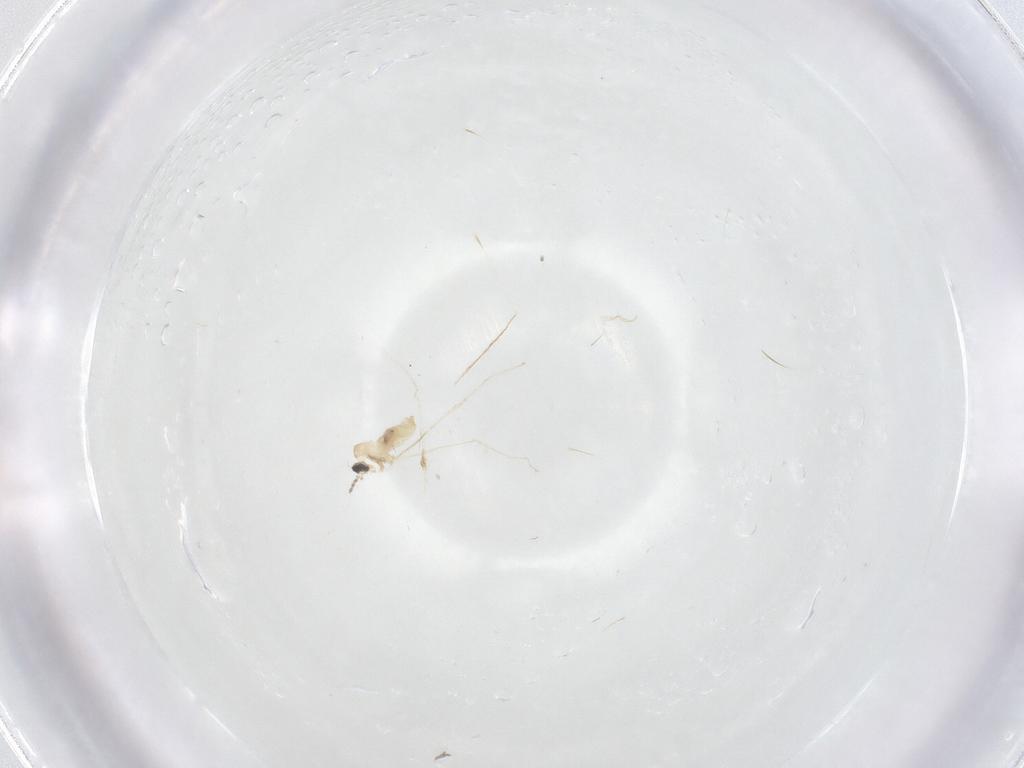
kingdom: Animalia
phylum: Arthropoda
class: Insecta
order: Diptera
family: Cecidomyiidae
